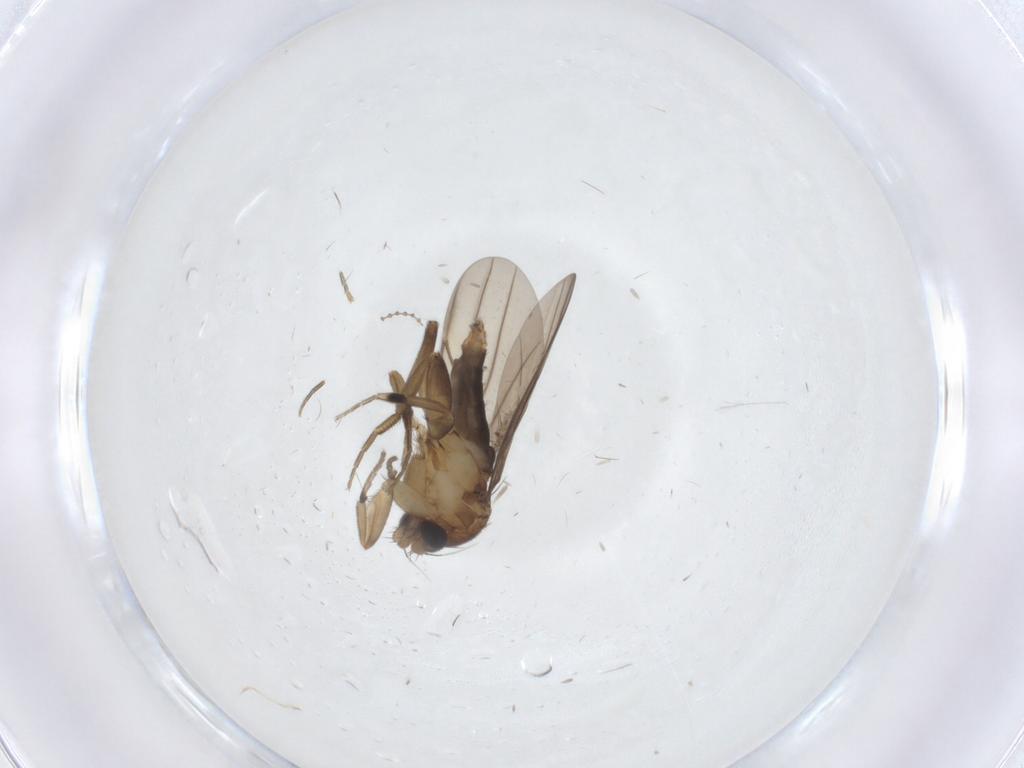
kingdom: Animalia
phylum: Arthropoda
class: Insecta
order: Diptera
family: Phoridae
